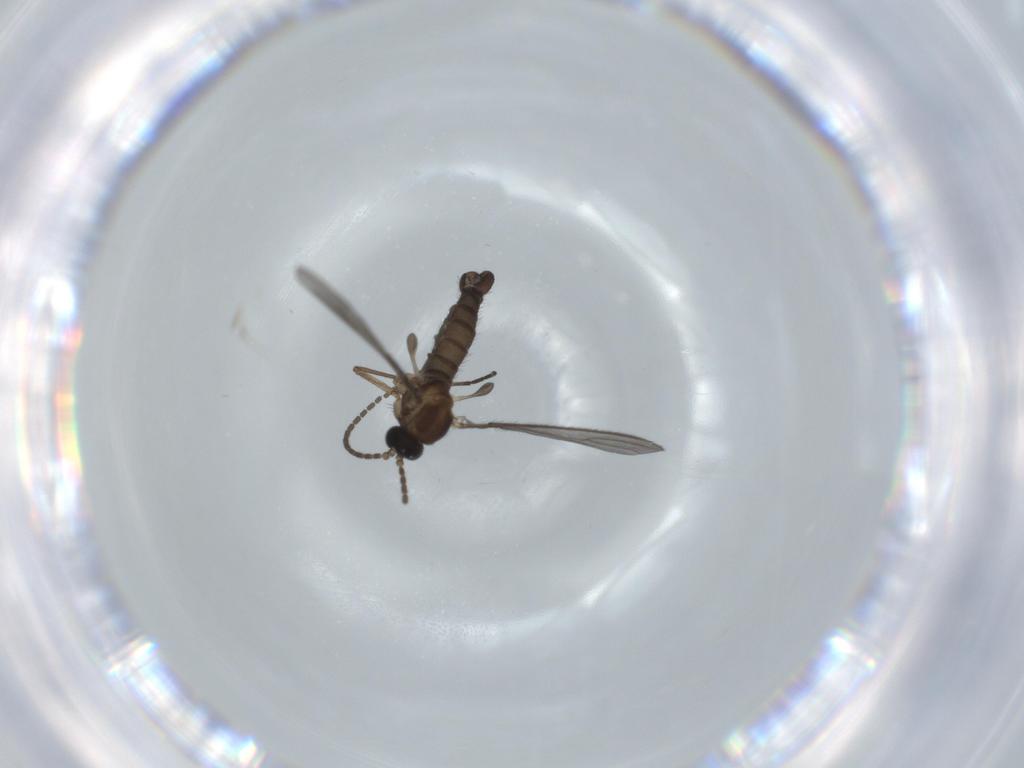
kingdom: Animalia
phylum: Arthropoda
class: Insecta
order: Diptera
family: Sciaridae
